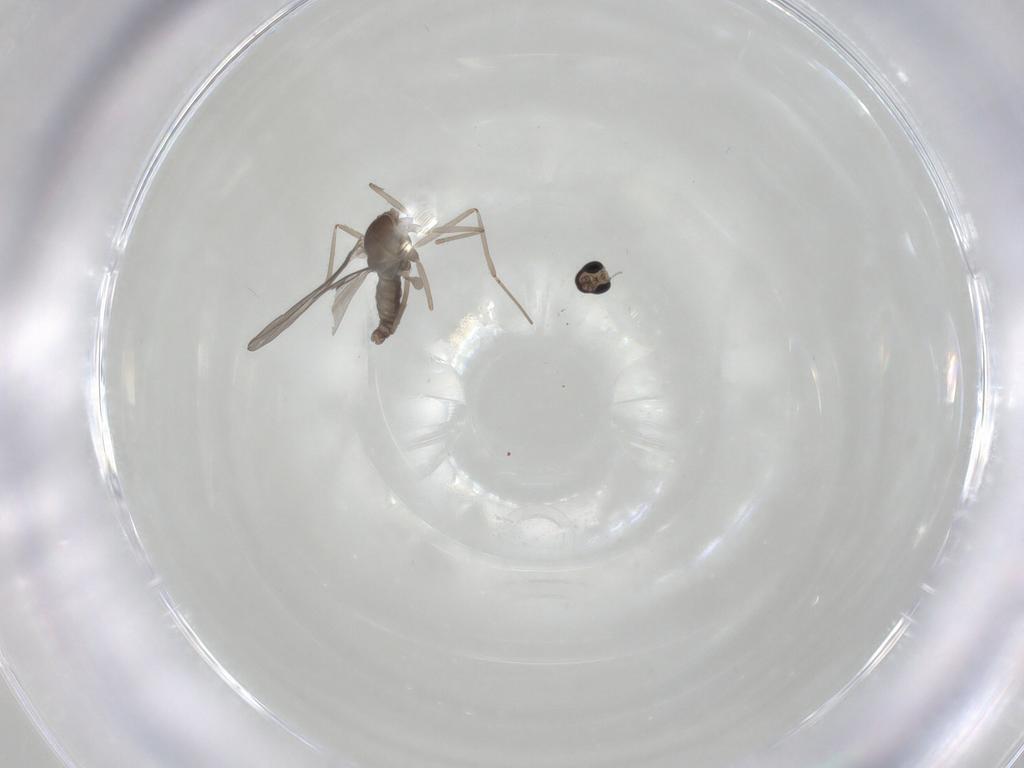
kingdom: Animalia
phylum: Arthropoda
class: Insecta
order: Diptera
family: Cecidomyiidae
